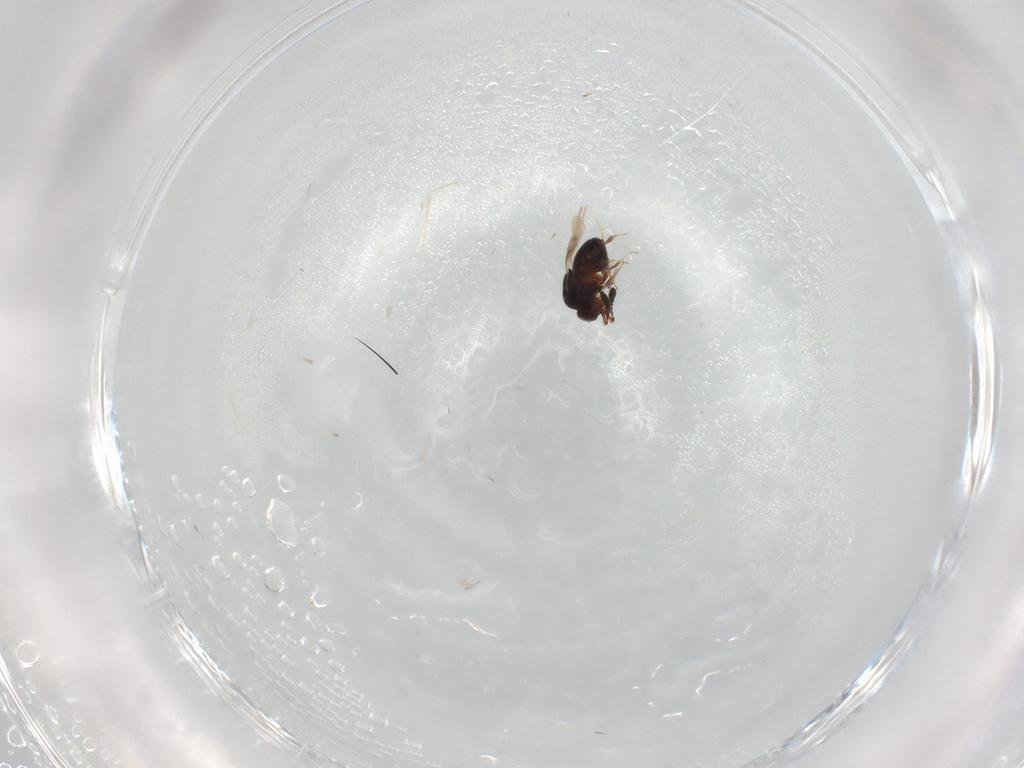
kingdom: Animalia
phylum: Arthropoda
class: Insecta
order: Hymenoptera
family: Ceraphronidae
